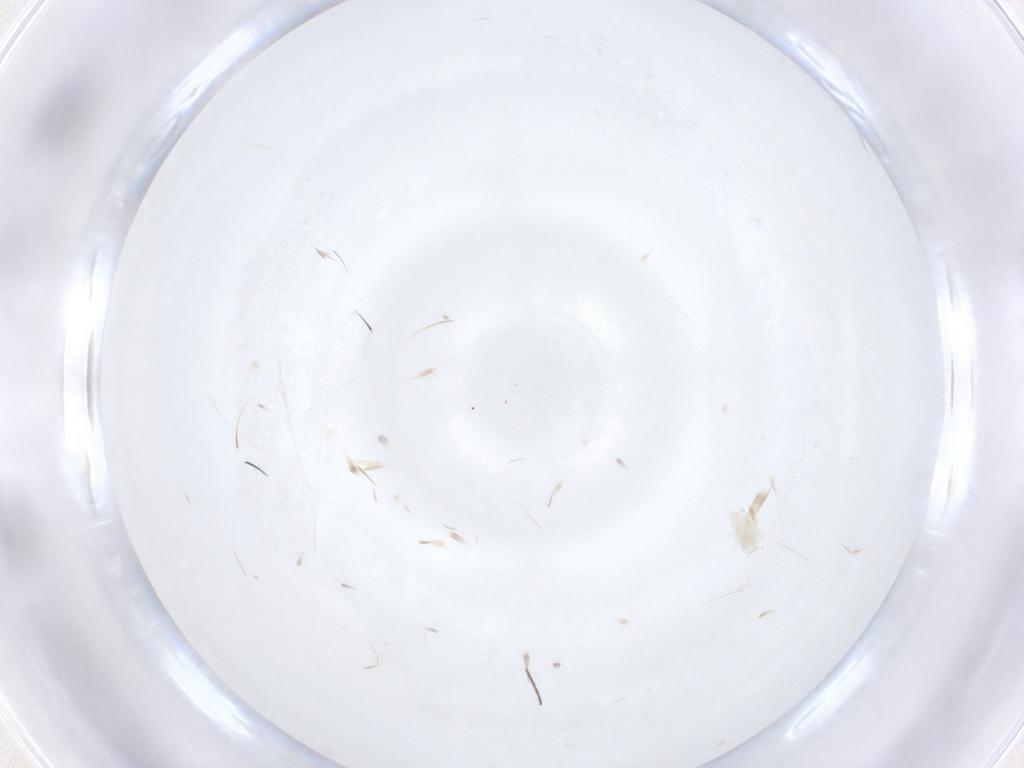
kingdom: Animalia
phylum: Arthropoda
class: Insecta
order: Diptera
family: Chironomidae
